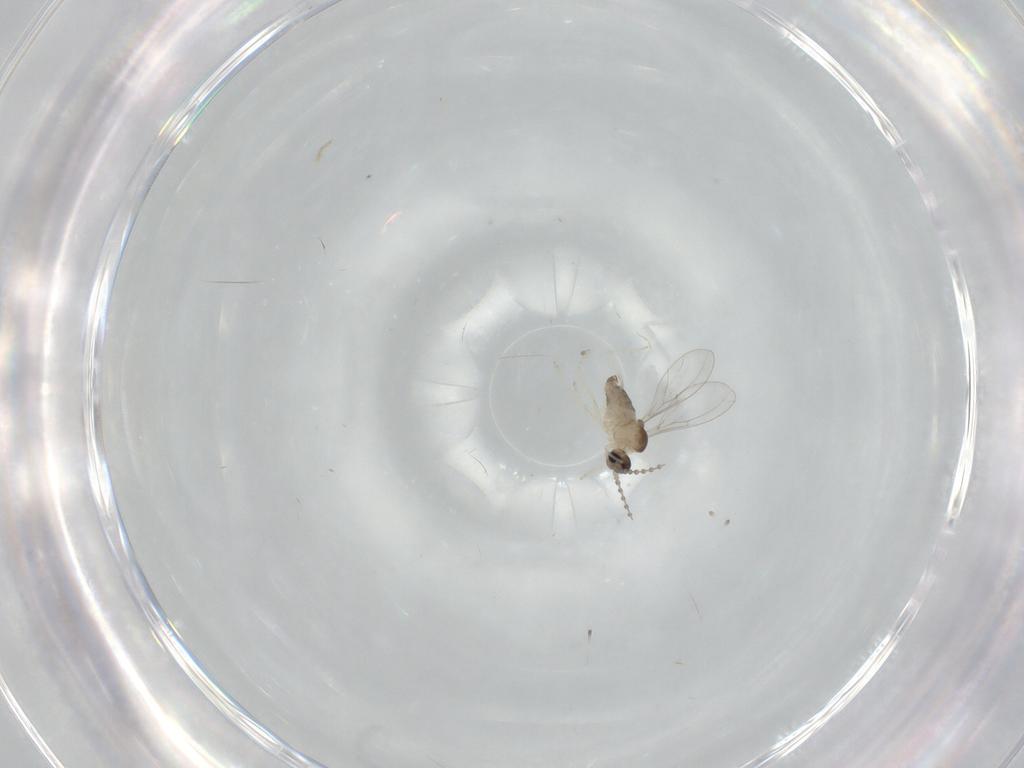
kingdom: Animalia
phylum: Arthropoda
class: Insecta
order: Diptera
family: Cecidomyiidae
